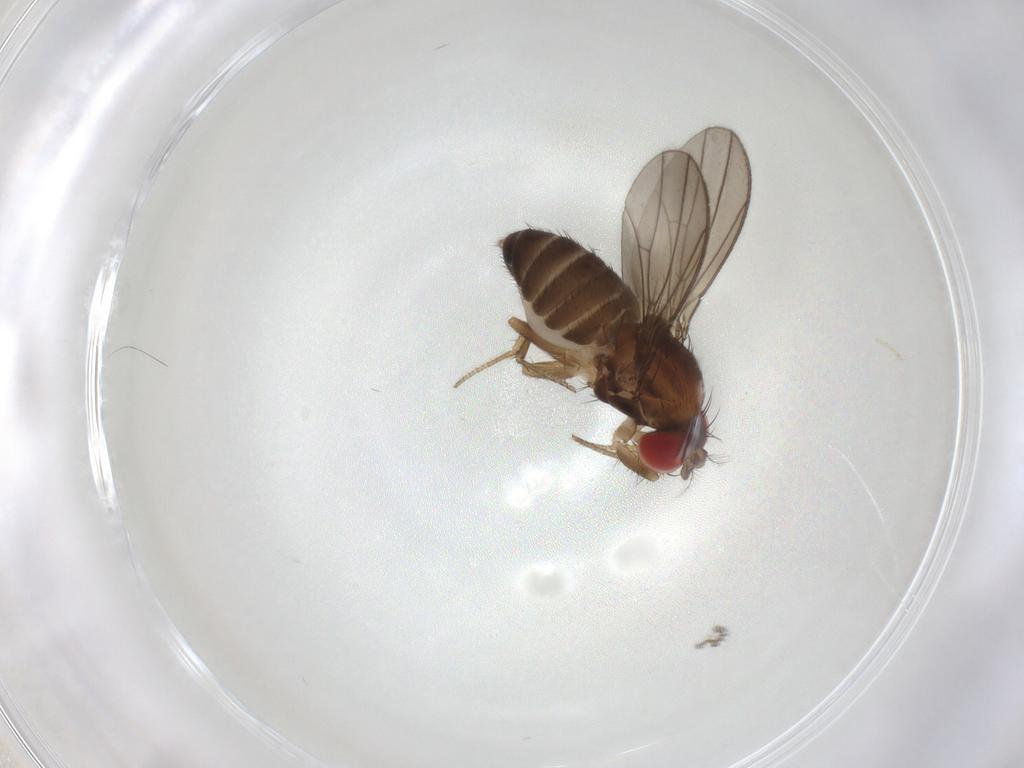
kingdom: Animalia
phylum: Arthropoda
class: Insecta
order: Diptera
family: Drosophilidae
